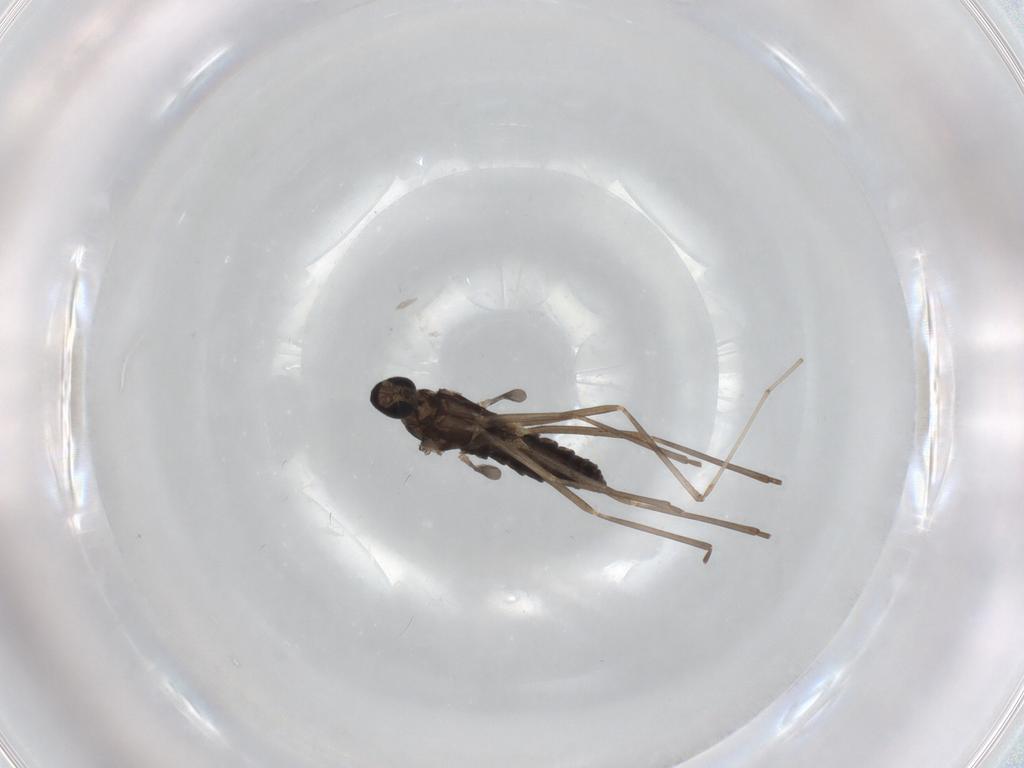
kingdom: Animalia
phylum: Arthropoda
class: Insecta
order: Diptera
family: Cecidomyiidae
